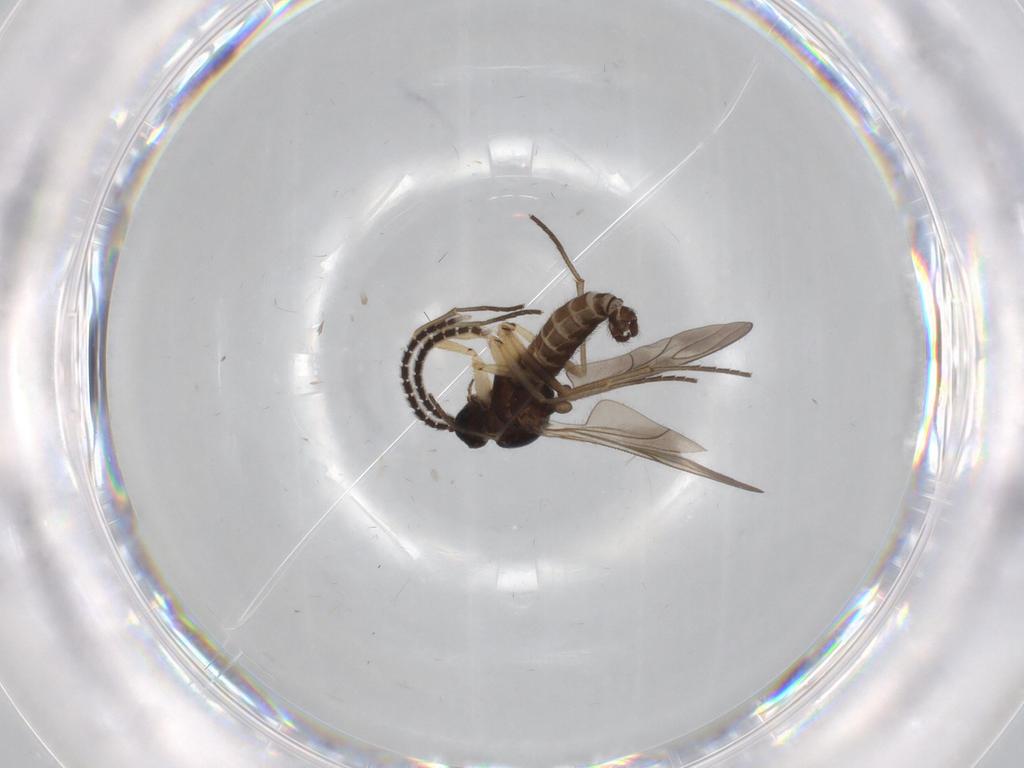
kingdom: Animalia
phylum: Arthropoda
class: Insecta
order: Diptera
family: Sciaridae
